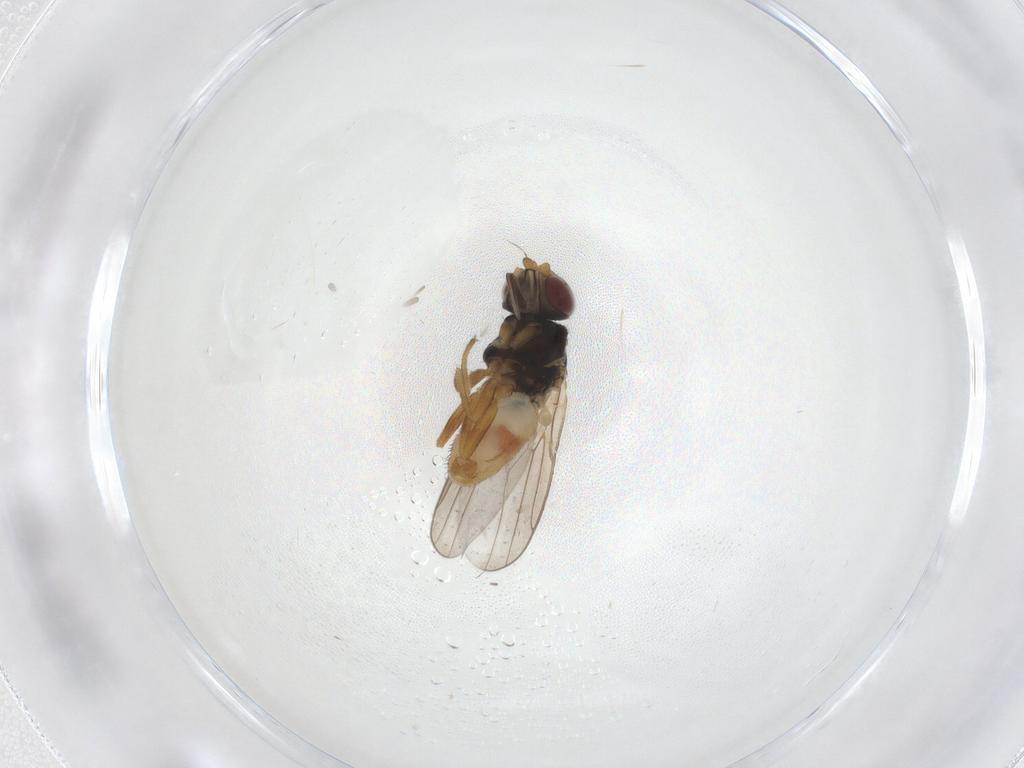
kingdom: Animalia
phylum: Arthropoda
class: Insecta
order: Diptera
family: Chloropidae
